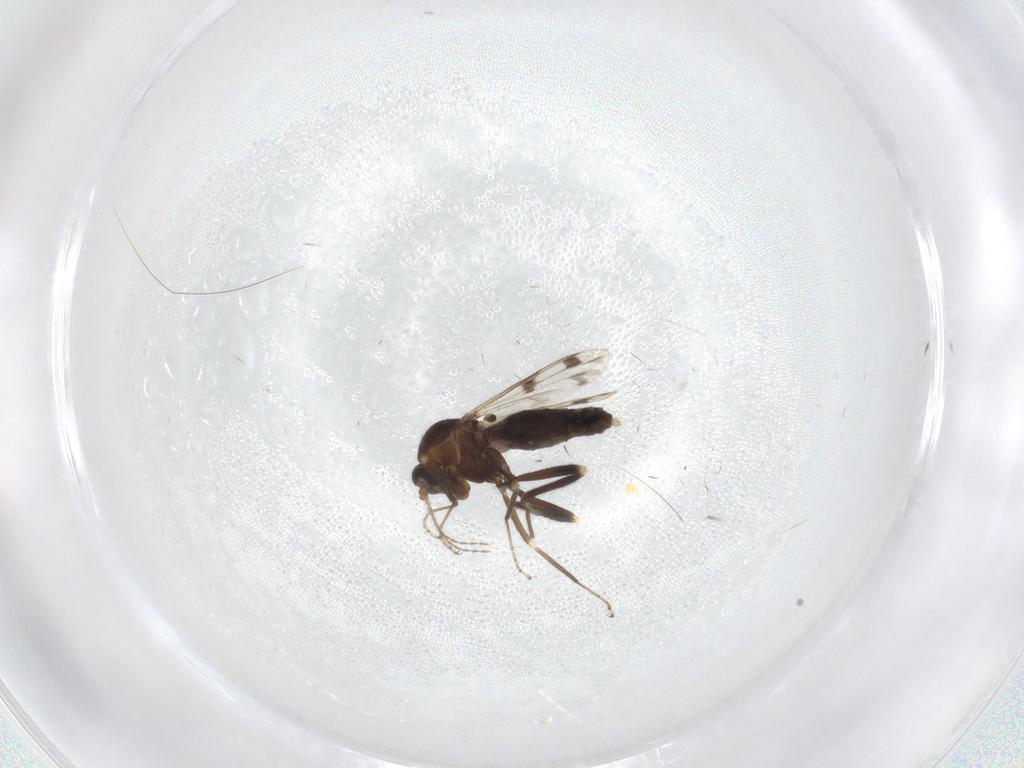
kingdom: Animalia
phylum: Arthropoda
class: Insecta
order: Diptera
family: Ceratopogonidae
